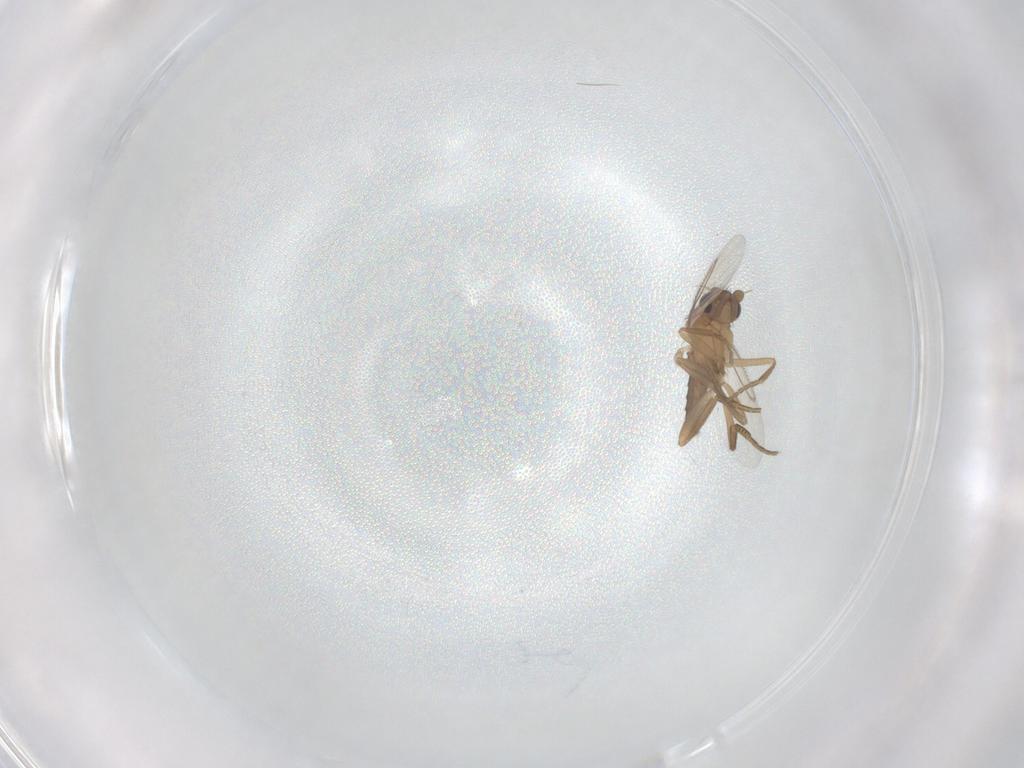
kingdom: Animalia
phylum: Arthropoda
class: Insecta
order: Diptera
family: Phoridae
